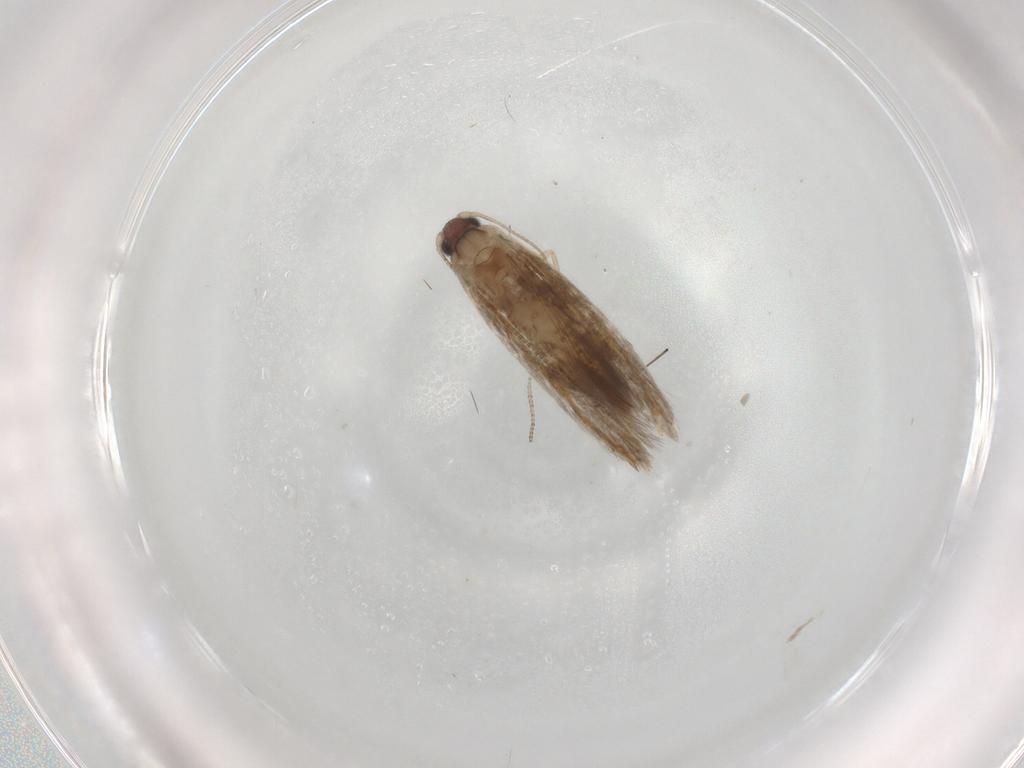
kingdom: Animalia
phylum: Arthropoda
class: Insecta
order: Lepidoptera
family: Tineidae
